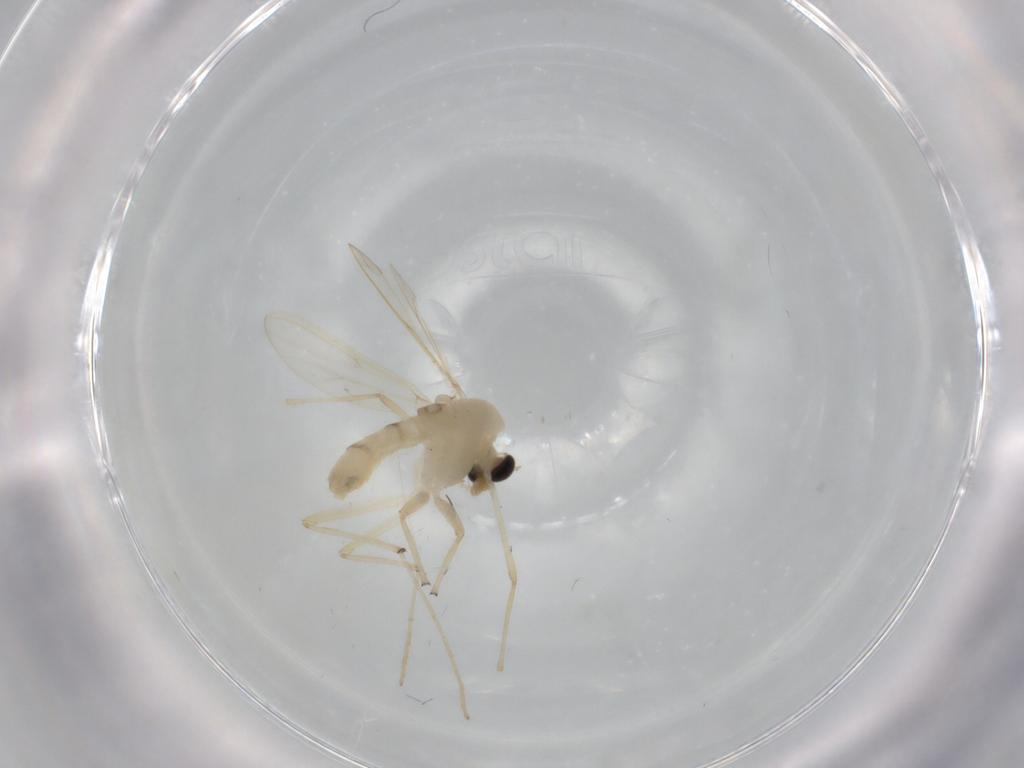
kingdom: Animalia
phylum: Arthropoda
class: Insecta
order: Diptera
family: Chironomidae
